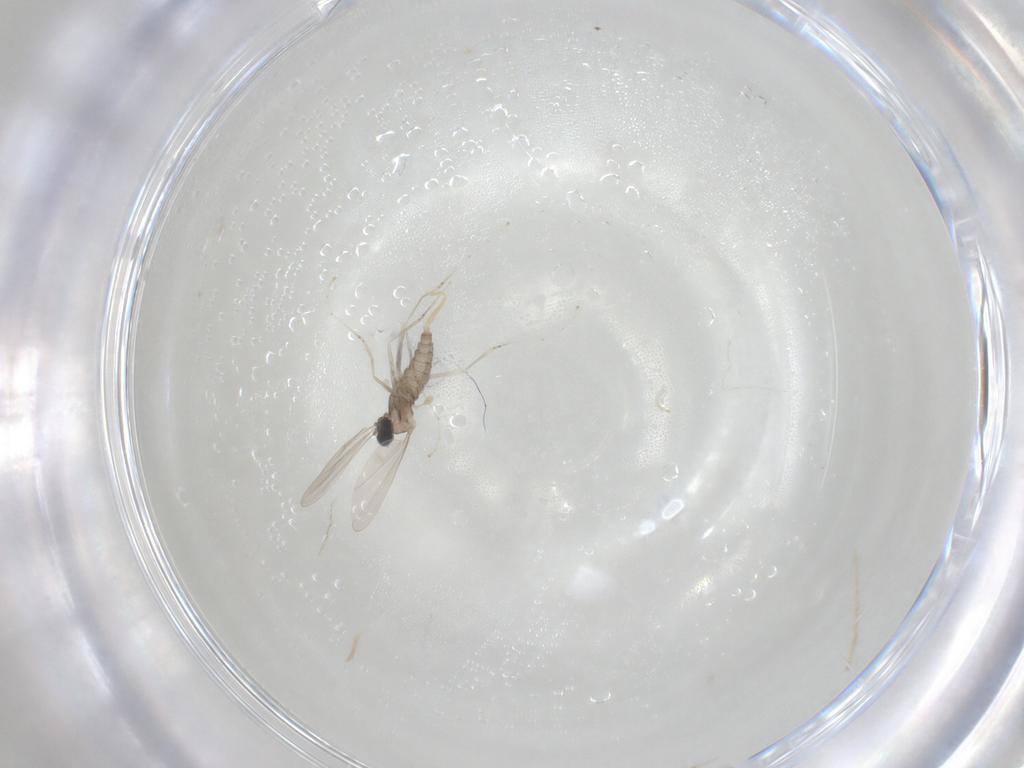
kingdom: Animalia
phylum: Arthropoda
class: Insecta
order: Diptera
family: Cecidomyiidae
